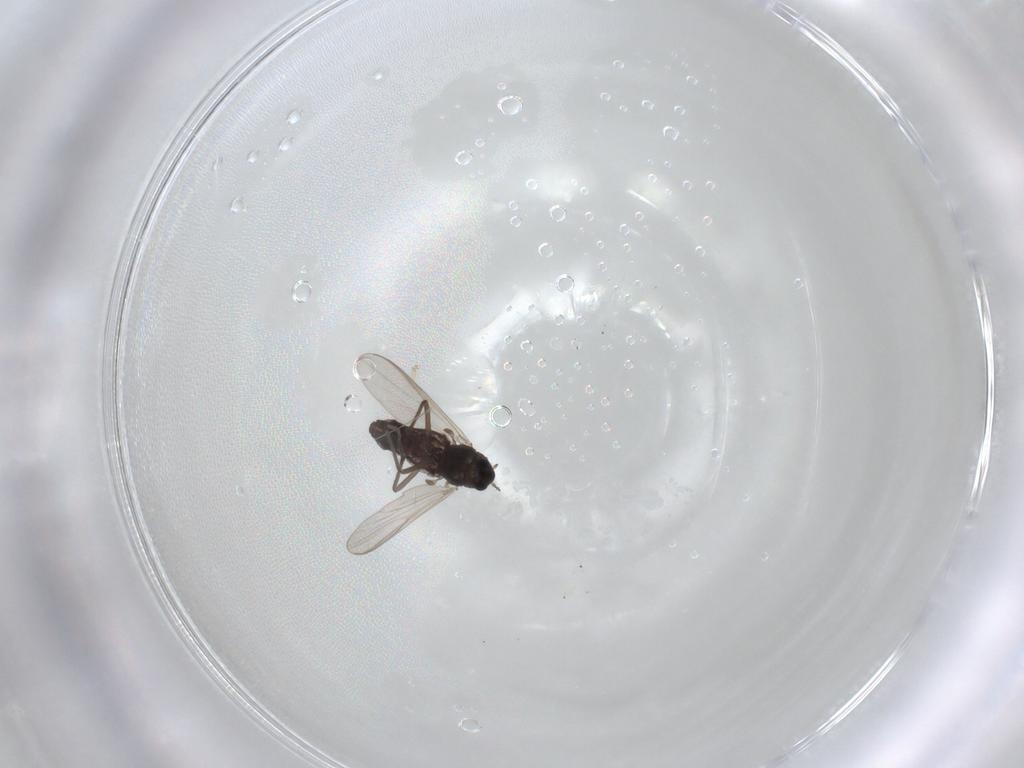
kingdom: Animalia
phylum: Arthropoda
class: Insecta
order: Diptera
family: Chironomidae
